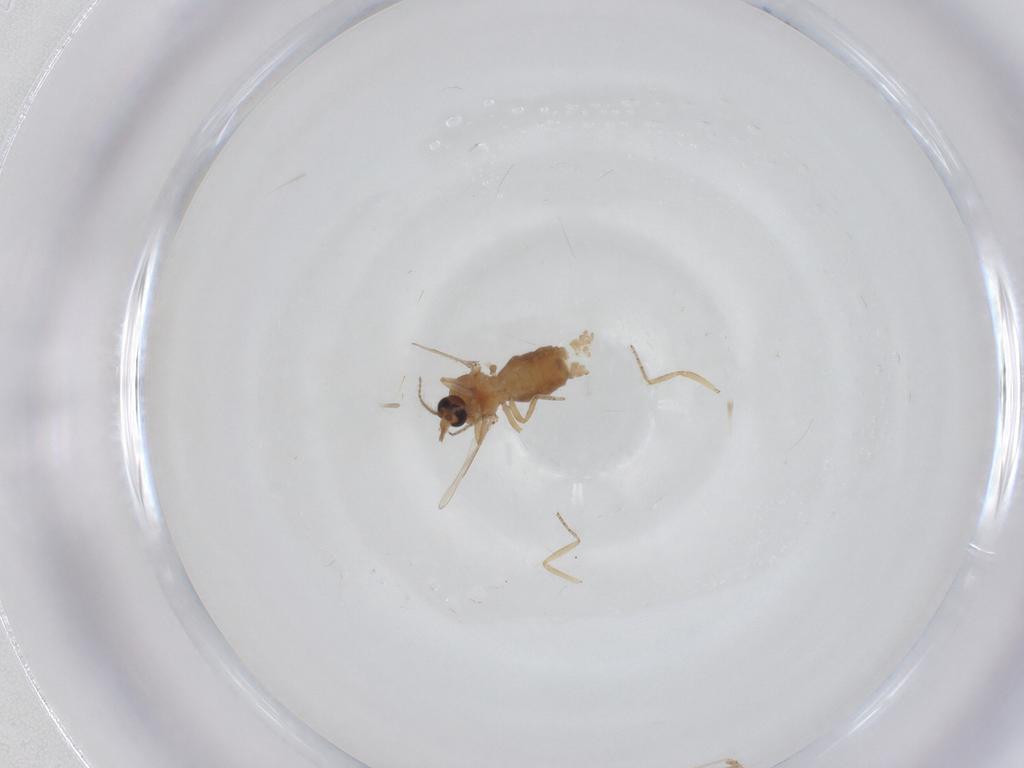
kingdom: Animalia
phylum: Arthropoda
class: Insecta
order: Diptera
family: Ceratopogonidae
